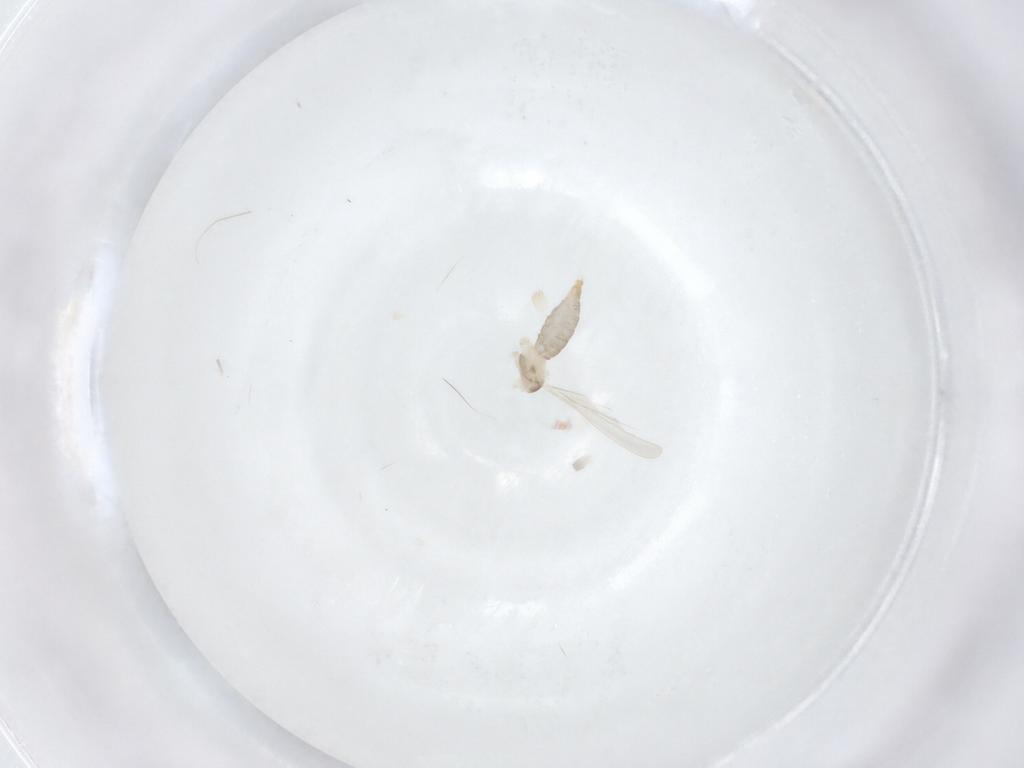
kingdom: Animalia
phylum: Arthropoda
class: Insecta
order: Diptera
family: Cecidomyiidae
